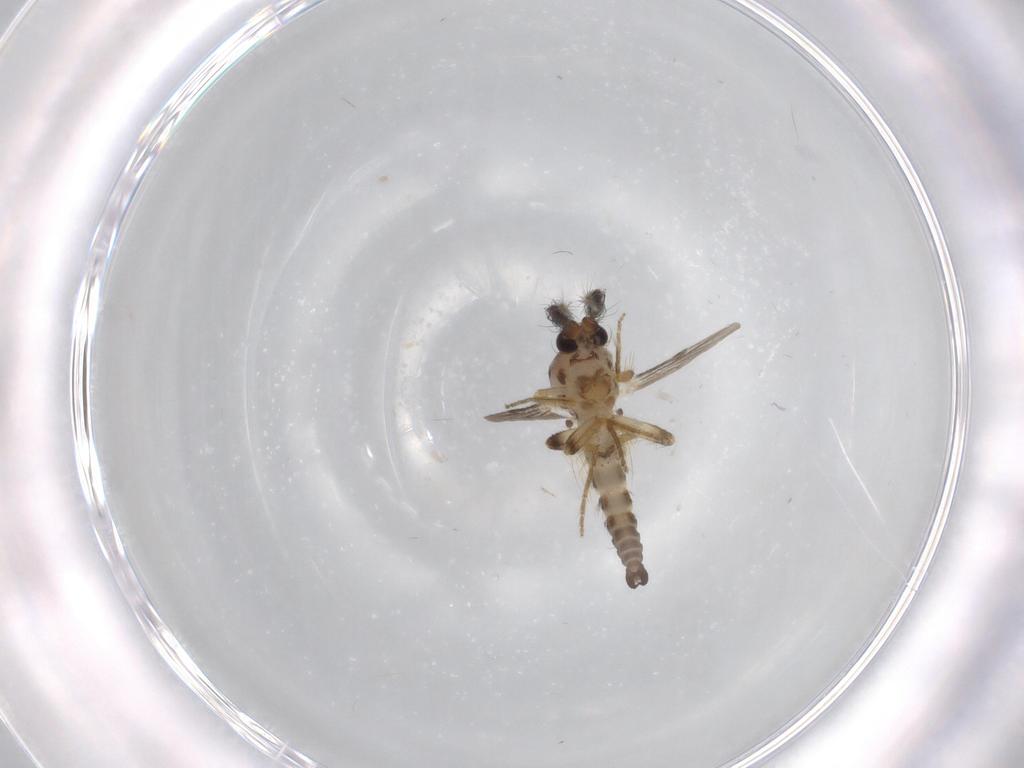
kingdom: Animalia
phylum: Arthropoda
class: Insecta
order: Diptera
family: Ceratopogonidae
